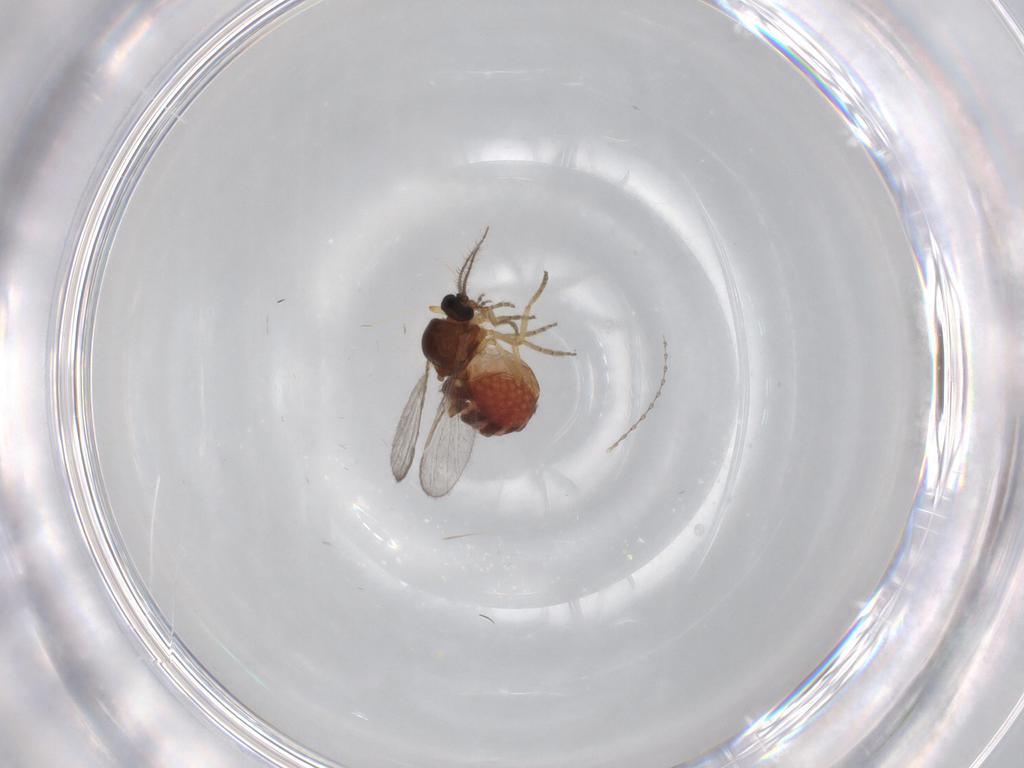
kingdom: Animalia
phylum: Arthropoda
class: Insecta
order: Diptera
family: Ceratopogonidae
